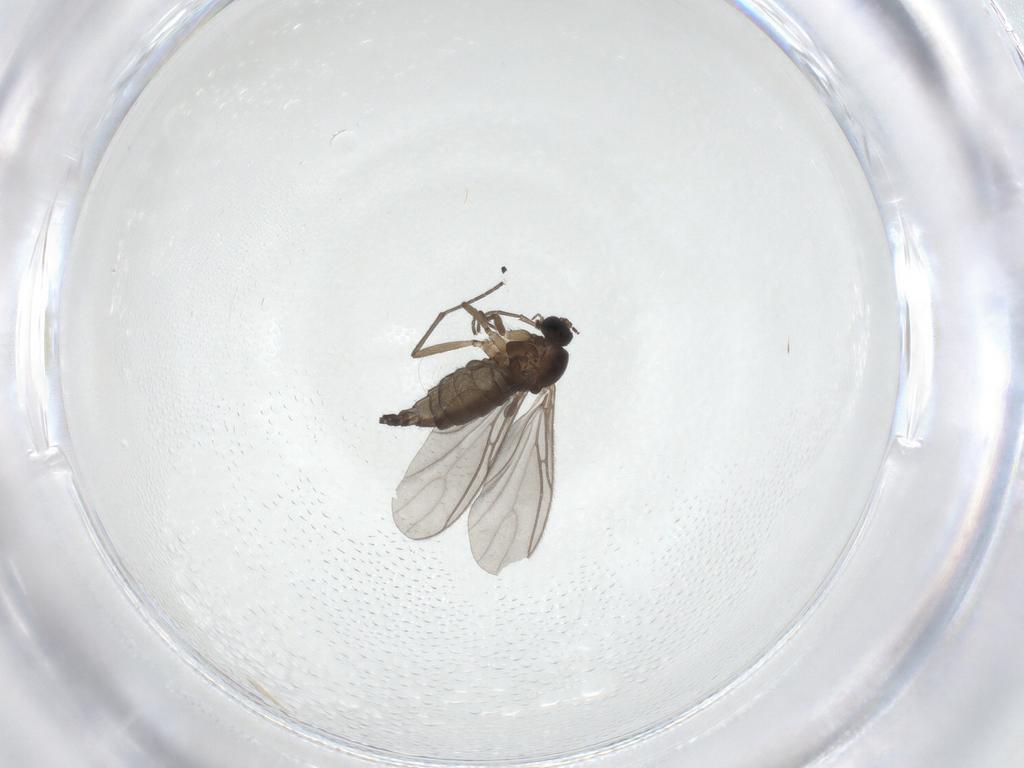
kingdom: Animalia
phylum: Arthropoda
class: Insecta
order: Diptera
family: Sciaridae
